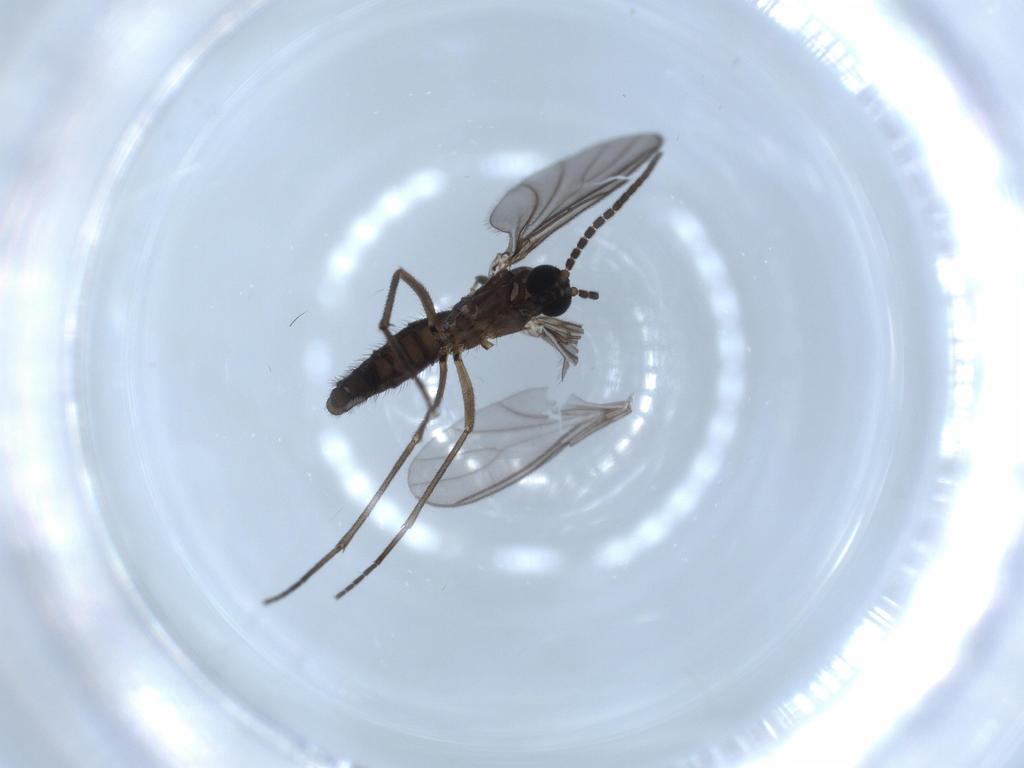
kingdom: Animalia
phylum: Arthropoda
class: Insecta
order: Diptera
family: Sciaridae
